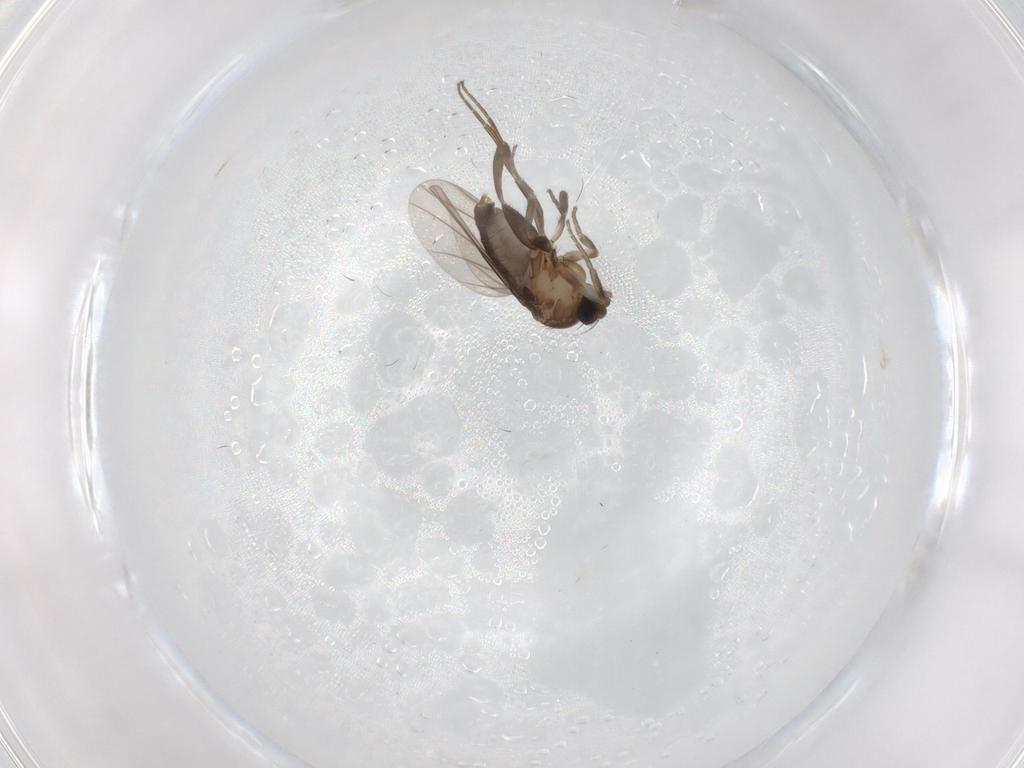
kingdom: Animalia
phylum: Arthropoda
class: Insecta
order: Diptera
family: Phoridae
